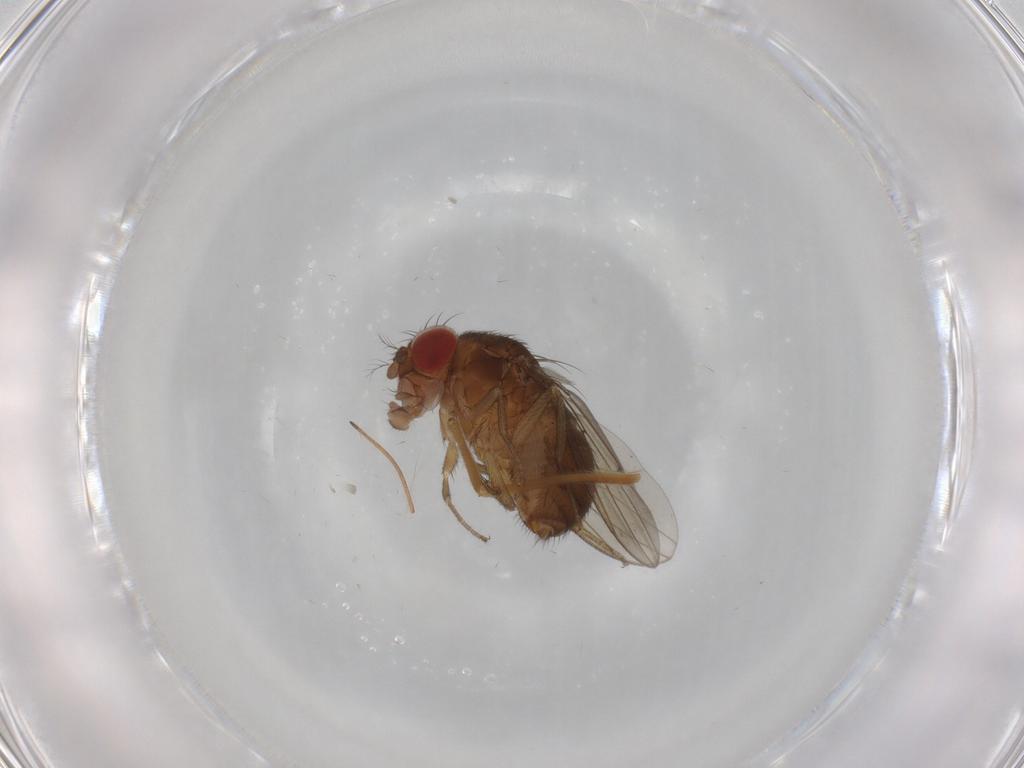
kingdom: Animalia
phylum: Arthropoda
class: Insecta
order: Diptera
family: Drosophilidae
